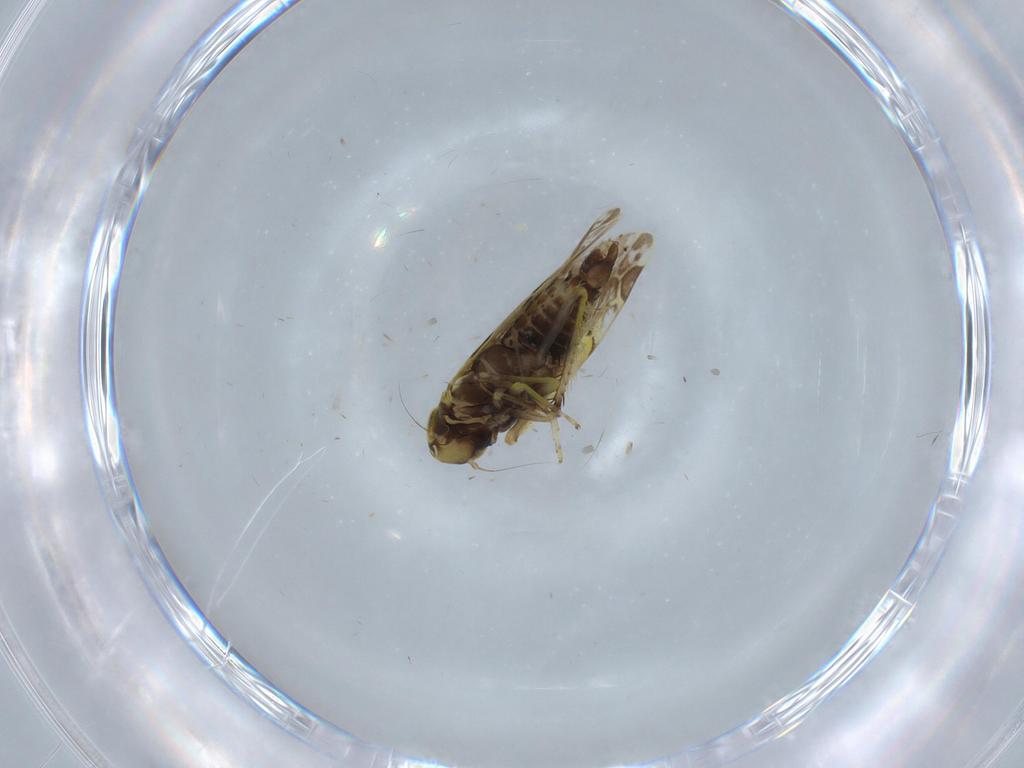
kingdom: Animalia
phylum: Arthropoda
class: Insecta
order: Hemiptera
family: Cicadellidae
